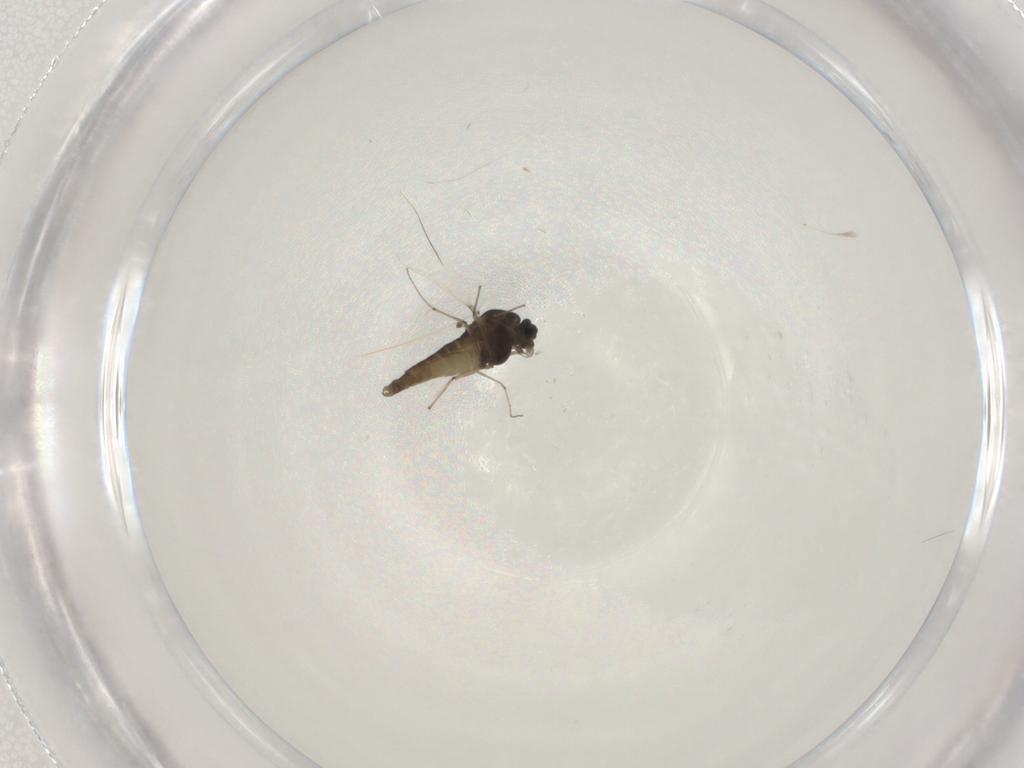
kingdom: Animalia
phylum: Arthropoda
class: Insecta
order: Diptera
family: Chironomidae
